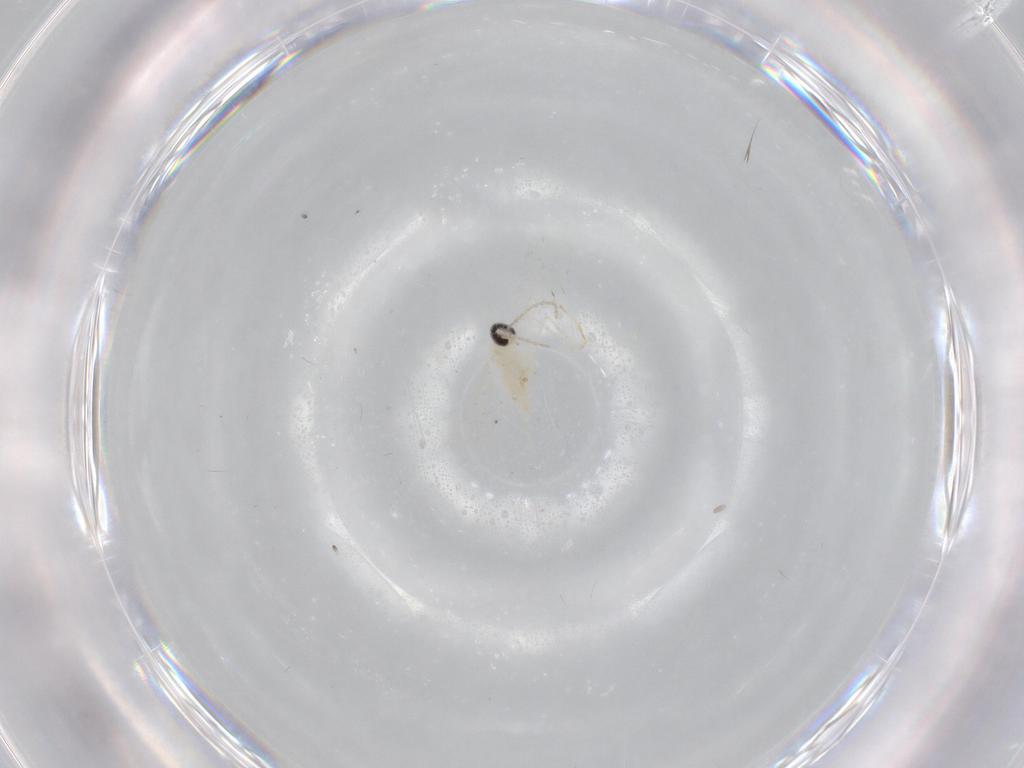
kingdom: Animalia
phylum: Arthropoda
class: Insecta
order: Diptera
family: Cecidomyiidae
